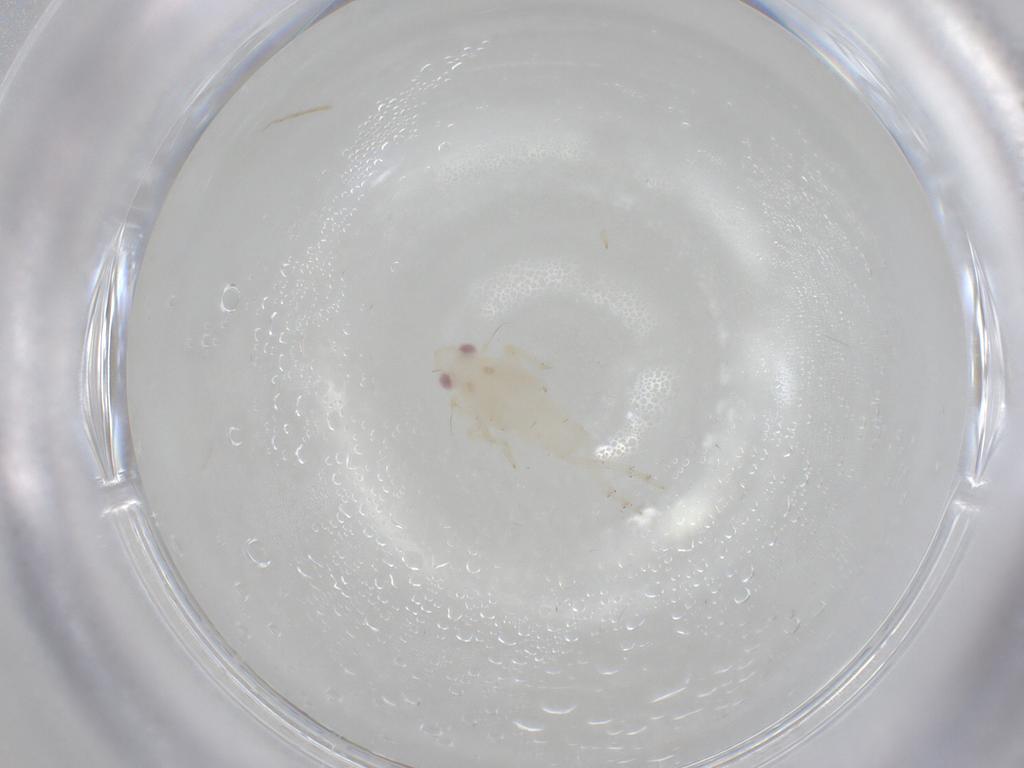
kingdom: Animalia
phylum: Arthropoda
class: Insecta
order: Hemiptera
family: Tropiduchidae
